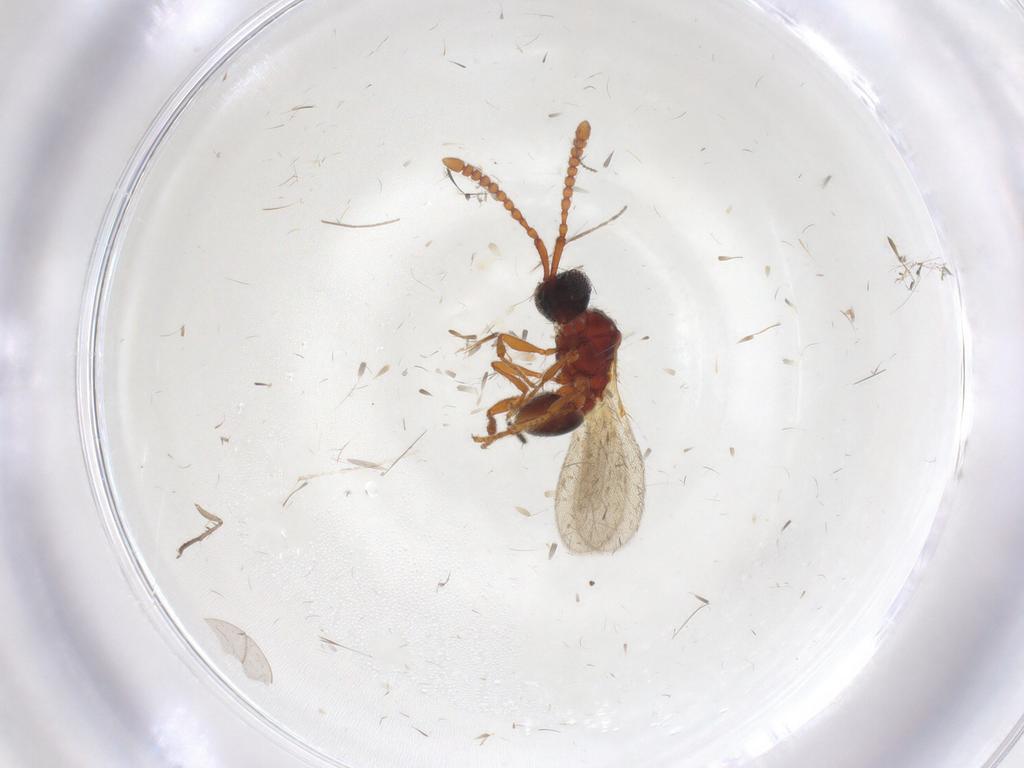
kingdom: Animalia
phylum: Arthropoda
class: Insecta
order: Hymenoptera
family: Diapriidae
